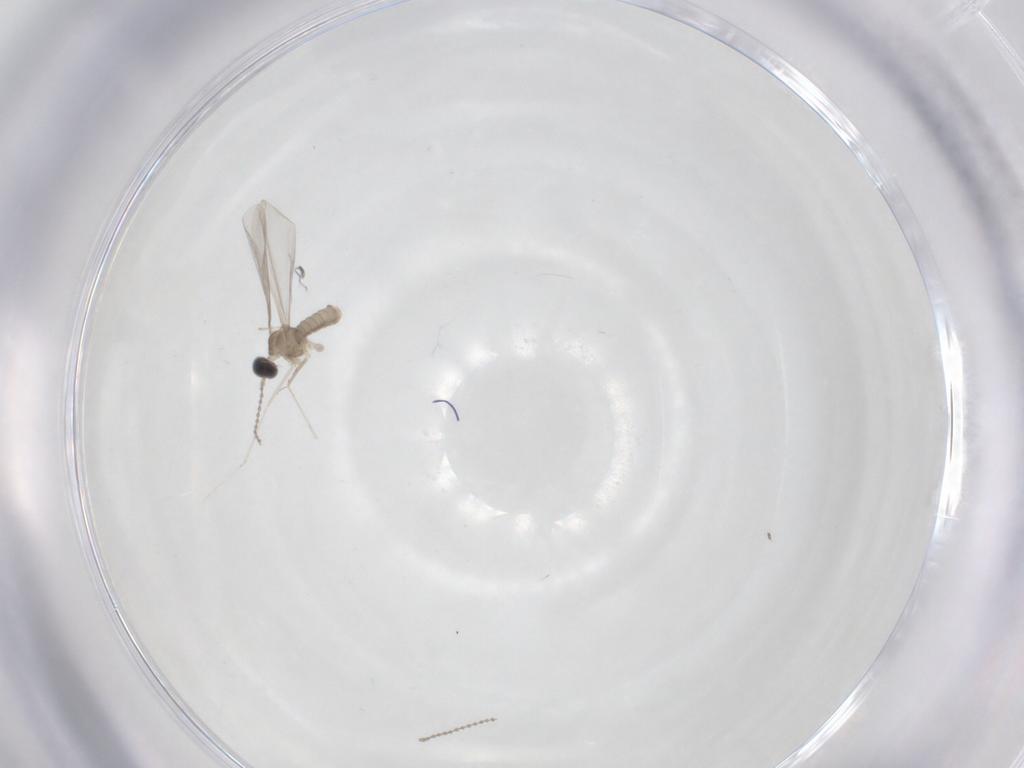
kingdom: Animalia
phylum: Arthropoda
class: Insecta
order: Diptera
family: Cecidomyiidae
